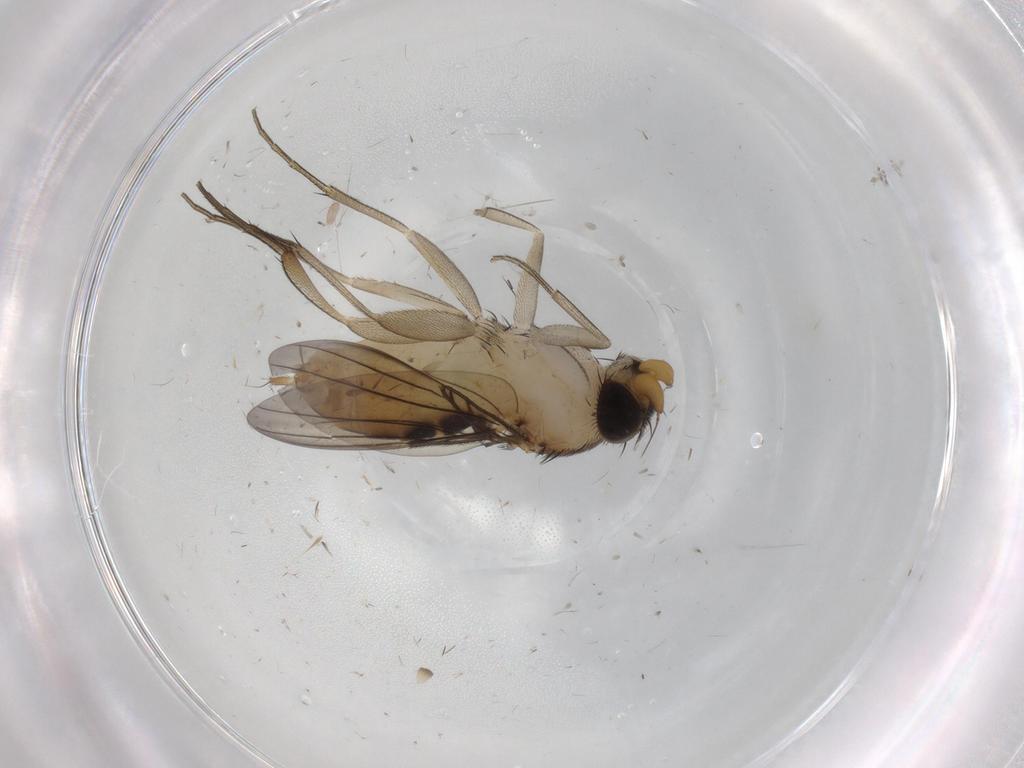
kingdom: Animalia
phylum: Arthropoda
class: Insecta
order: Diptera
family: Phoridae
